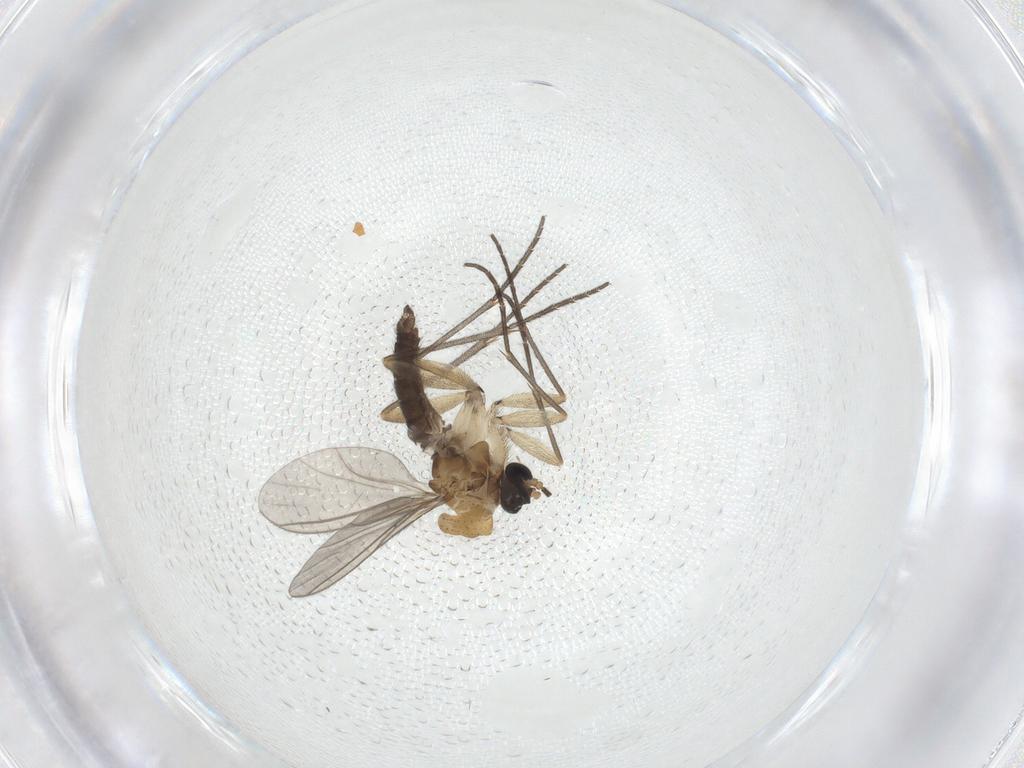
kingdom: Animalia
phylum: Arthropoda
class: Insecta
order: Diptera
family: Sciaridae
